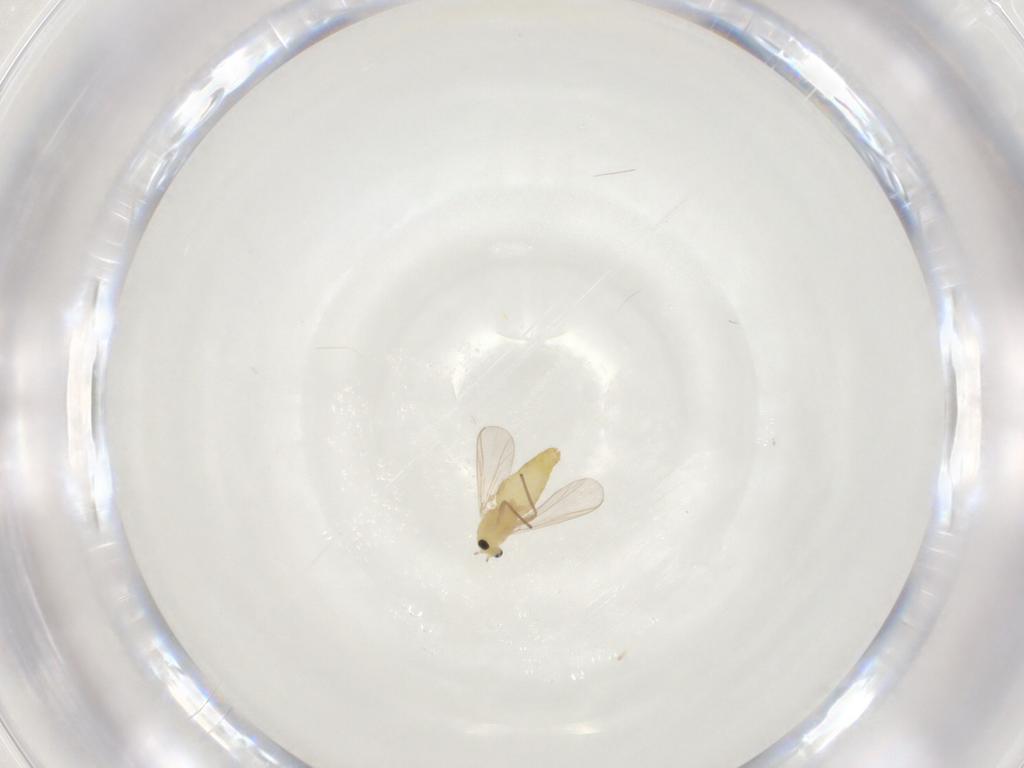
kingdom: Animalia
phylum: Arthropoda
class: Insecta
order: Diptera
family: Chironomidae
